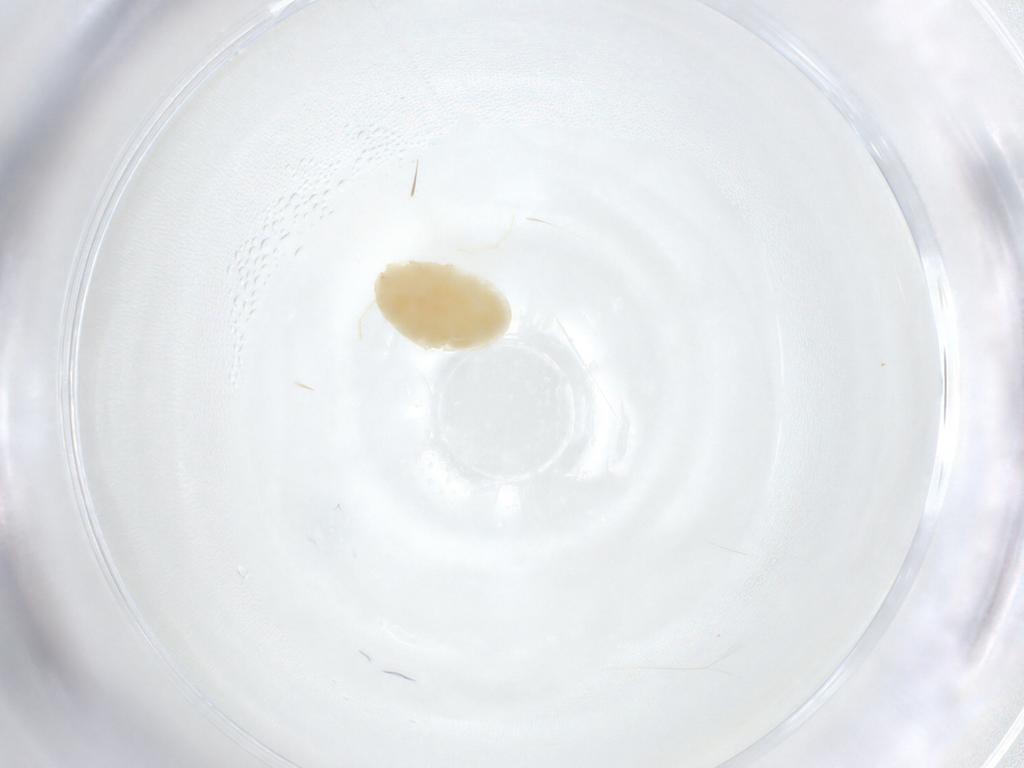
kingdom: Animalia
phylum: Arthropoda
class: Insecta
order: Lepidoptera
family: Geometridae
